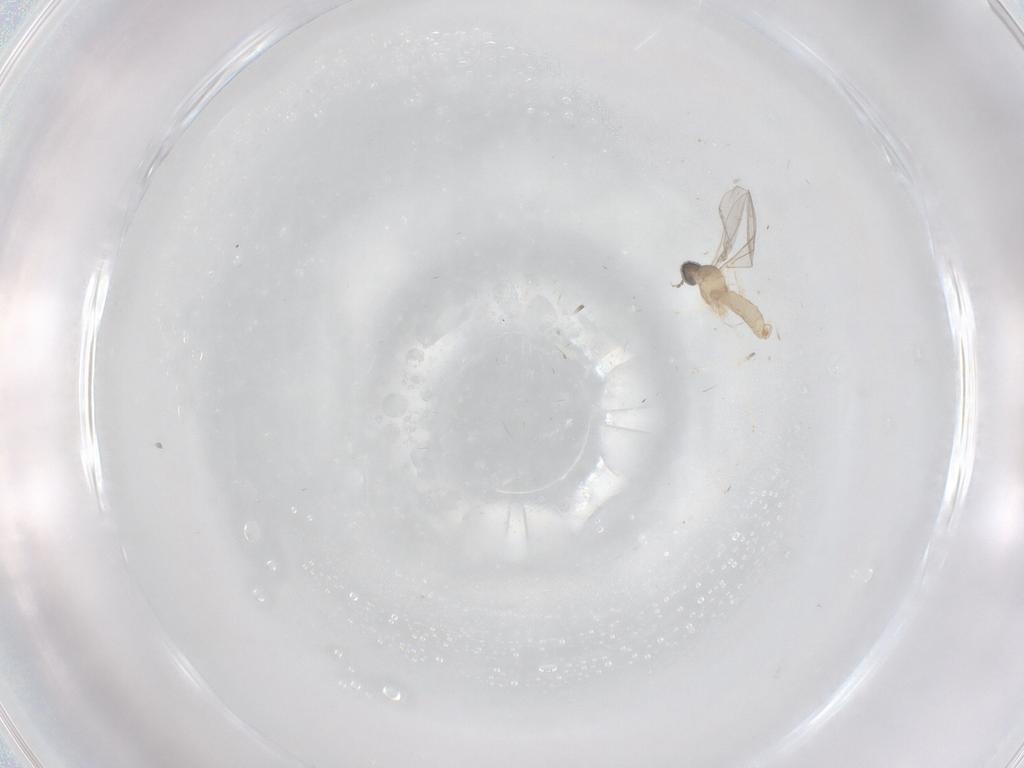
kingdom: Animalia
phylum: Arthropoda
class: Insecta
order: Diptera
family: Cecidomyiidae
